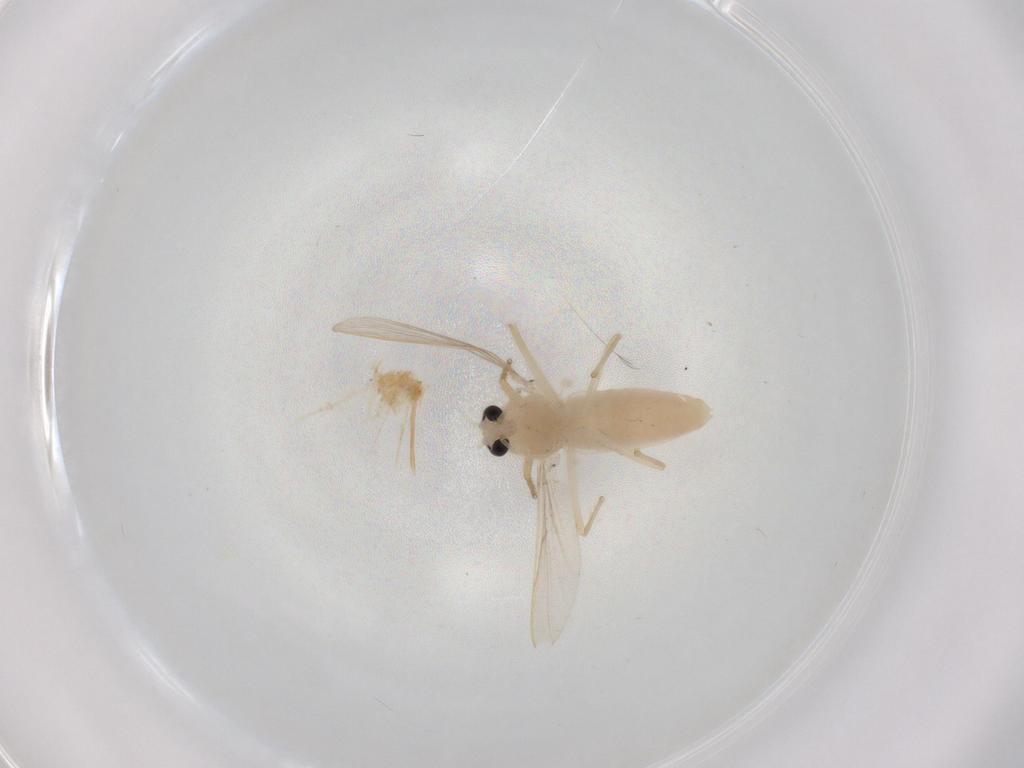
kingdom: Animalia
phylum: Arthropoda
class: Insecta
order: Diptera
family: Chironomidae
